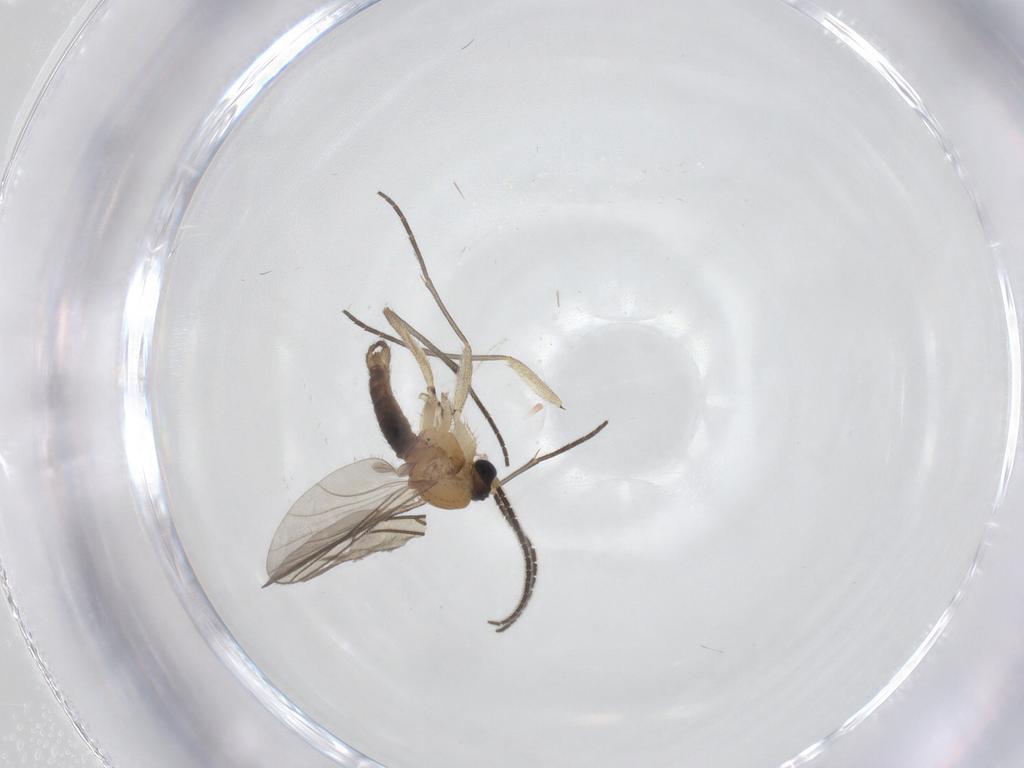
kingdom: Animalia
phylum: Arthropoda
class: Insecta
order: Diptera
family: Sciaridae
